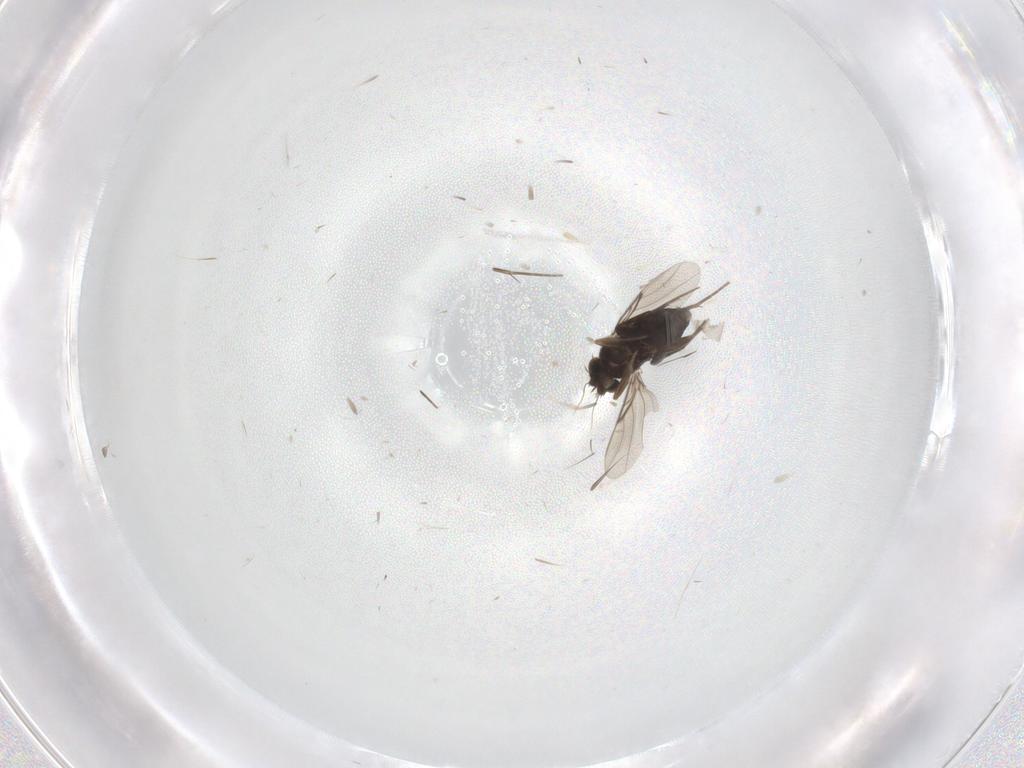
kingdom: Animalia
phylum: Arthropoda
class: Insecta
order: Diptera
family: Phoridae
